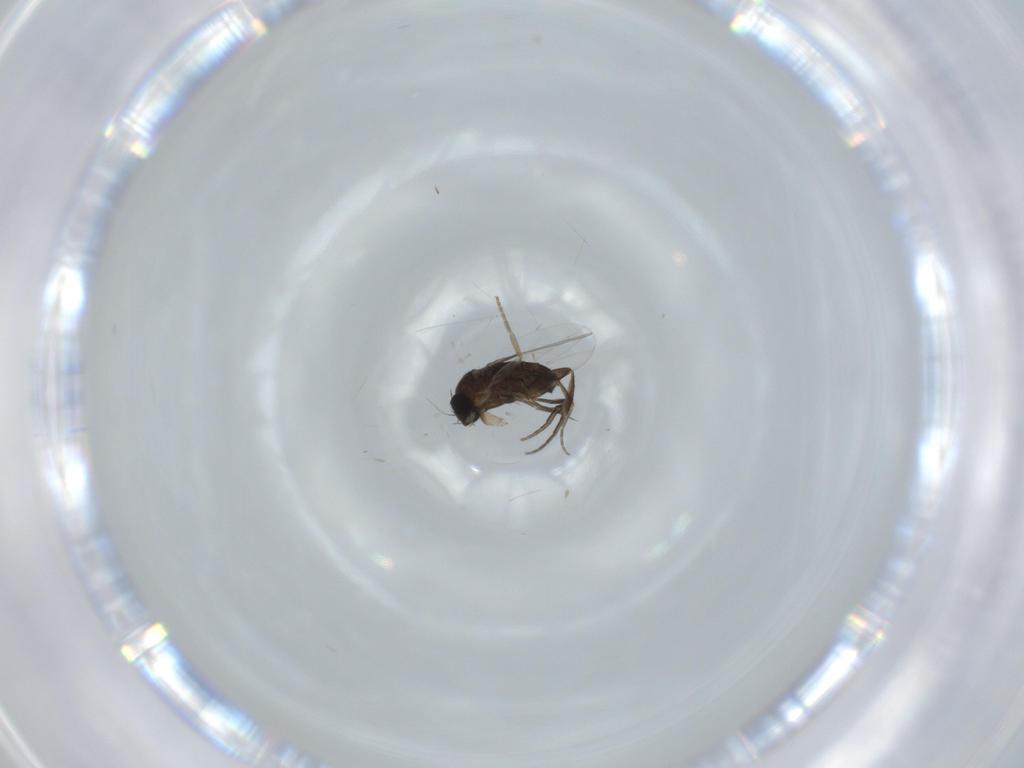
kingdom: Animalia
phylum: Arthropoda
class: Insecta
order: Diptera
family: Phoridae
